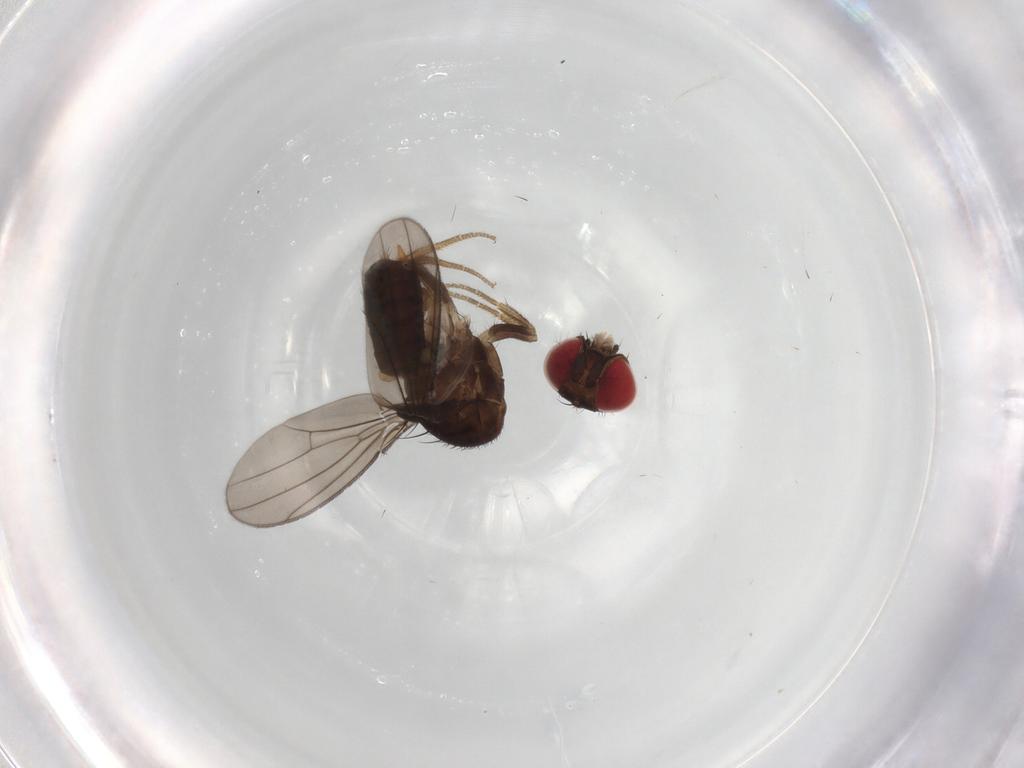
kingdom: Animalia
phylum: Arthropoda
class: Insecta
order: Diptera
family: Drosophilidae
